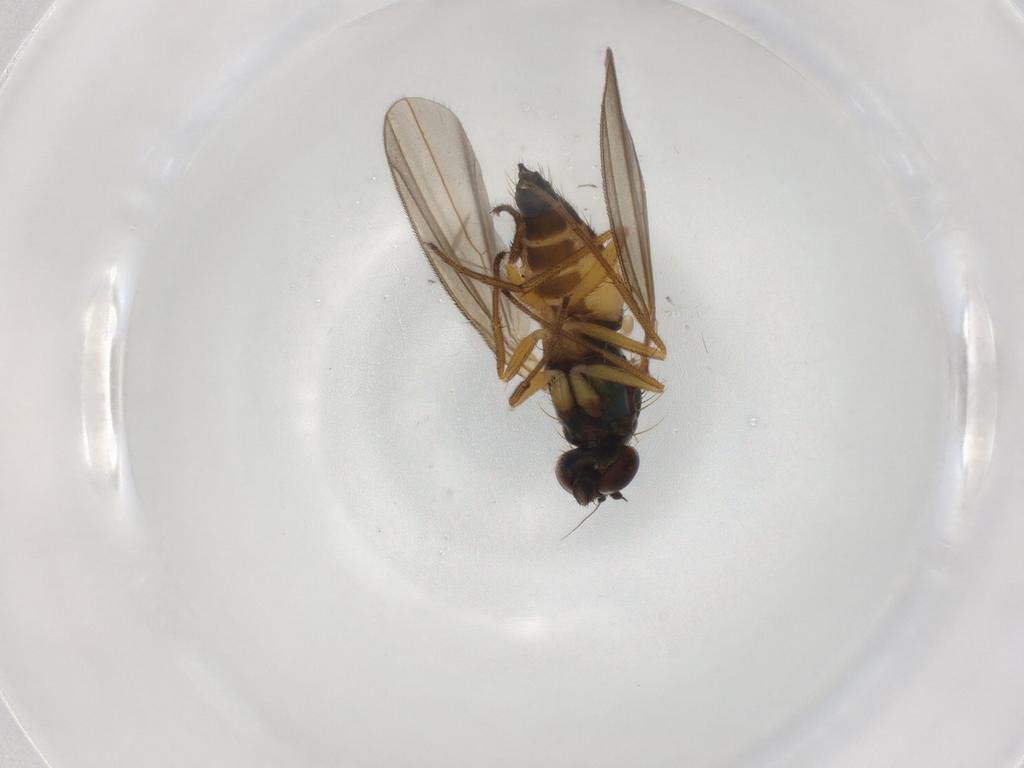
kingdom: Animalia
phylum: Arthropoda
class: Insecta
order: Diptera
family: Dolichopodidae
